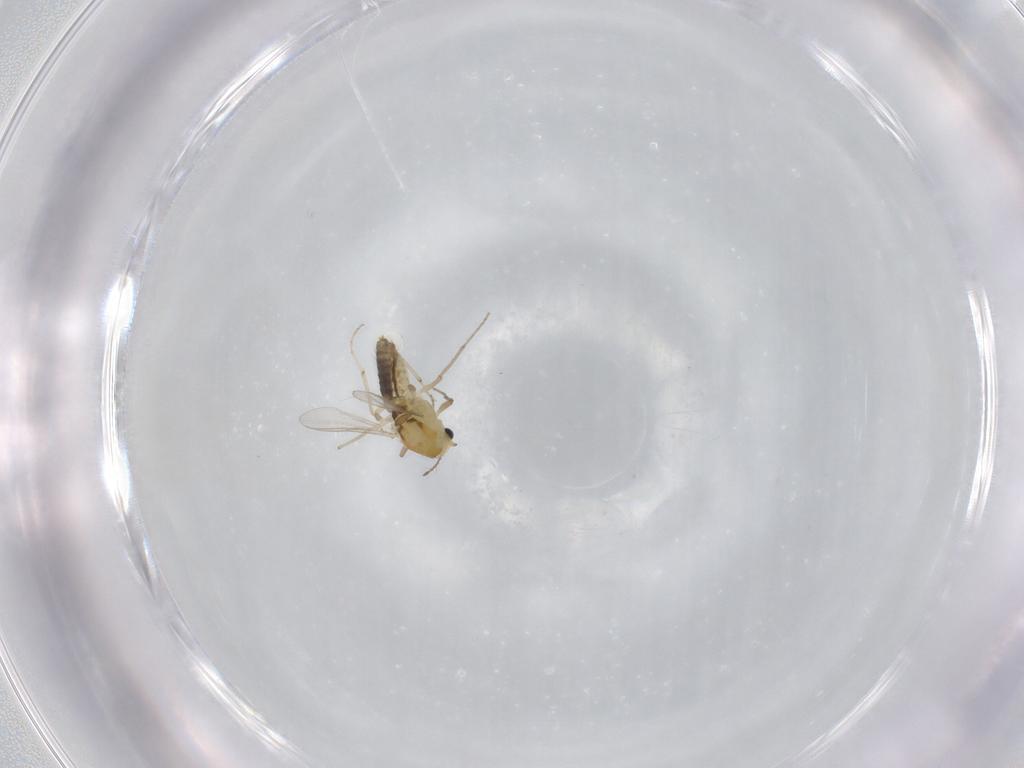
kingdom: Animalia
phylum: Arthropoda
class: Insecta
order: Diptera
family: Chironomidae
